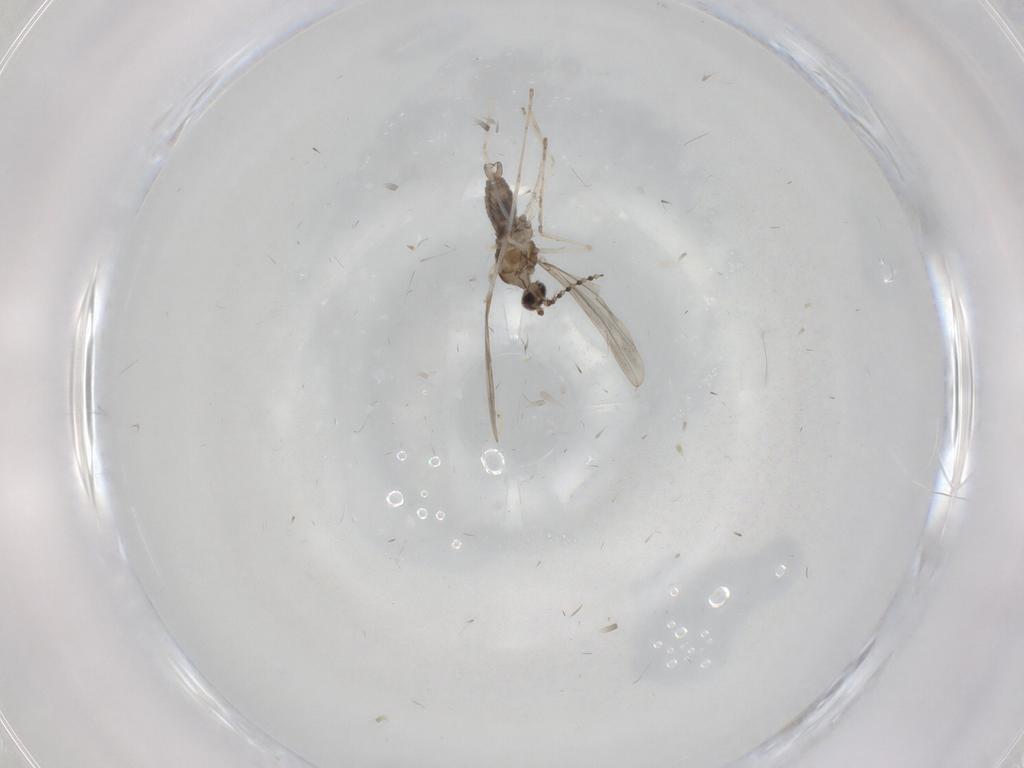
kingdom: Animalia
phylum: Arthropoda
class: Insecta
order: Diptera
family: Cecidomyiidae
